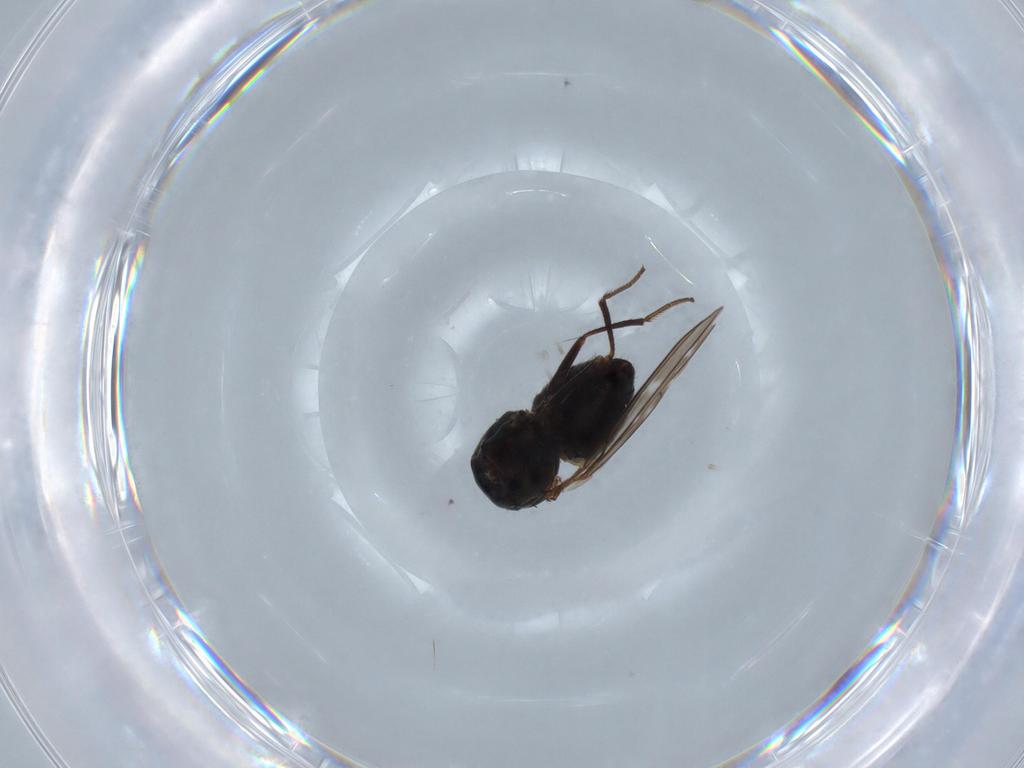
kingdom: Animalia
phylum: Arthropoda
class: Insecta
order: Diptera
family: Ephydridae
